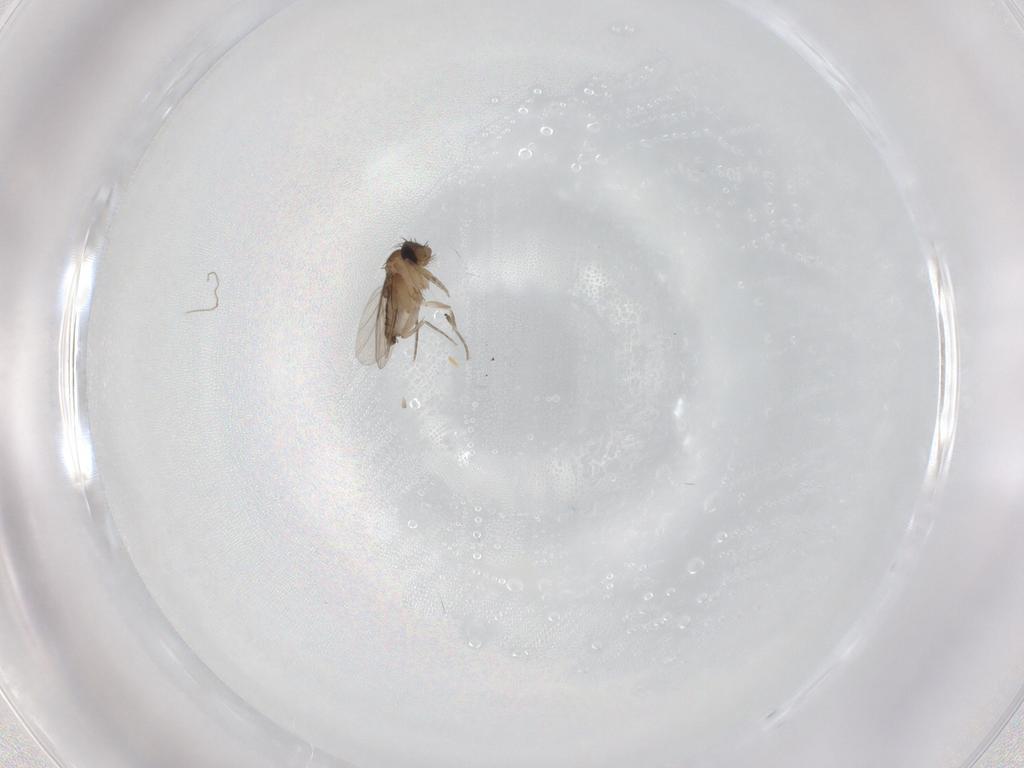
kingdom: Animalia
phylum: Arthropoda
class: Insecta
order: Diptera
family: Phoridae
